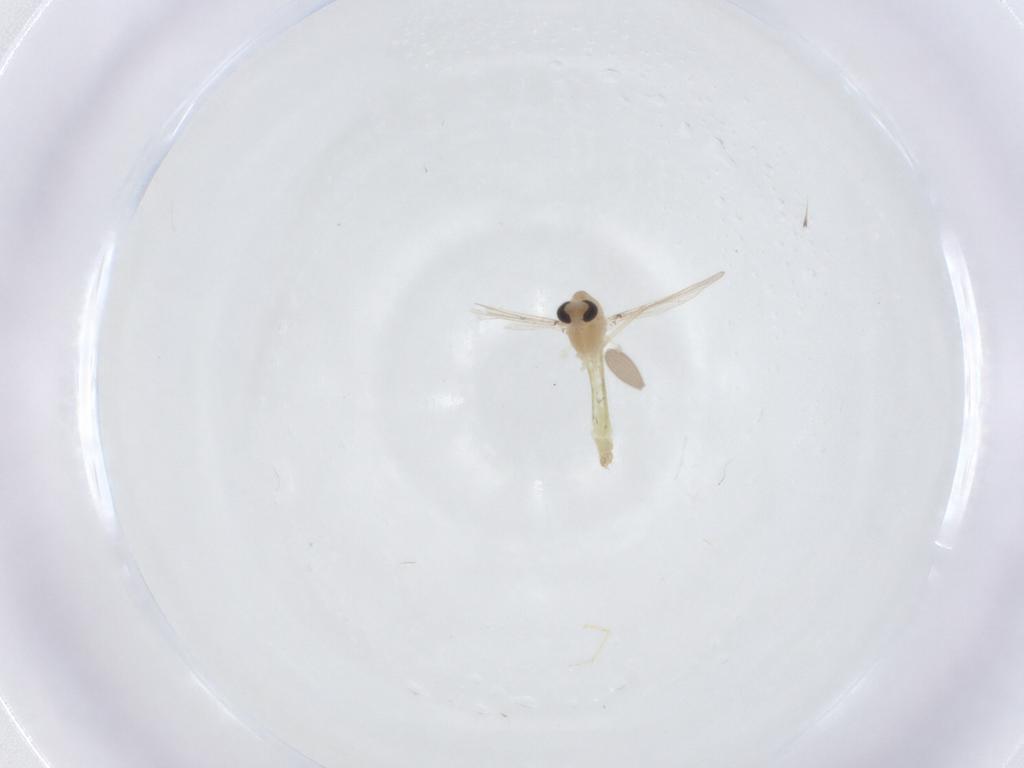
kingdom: Animalia
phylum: Arthropoda
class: Insecta
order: Diptera
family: Chironomidae
